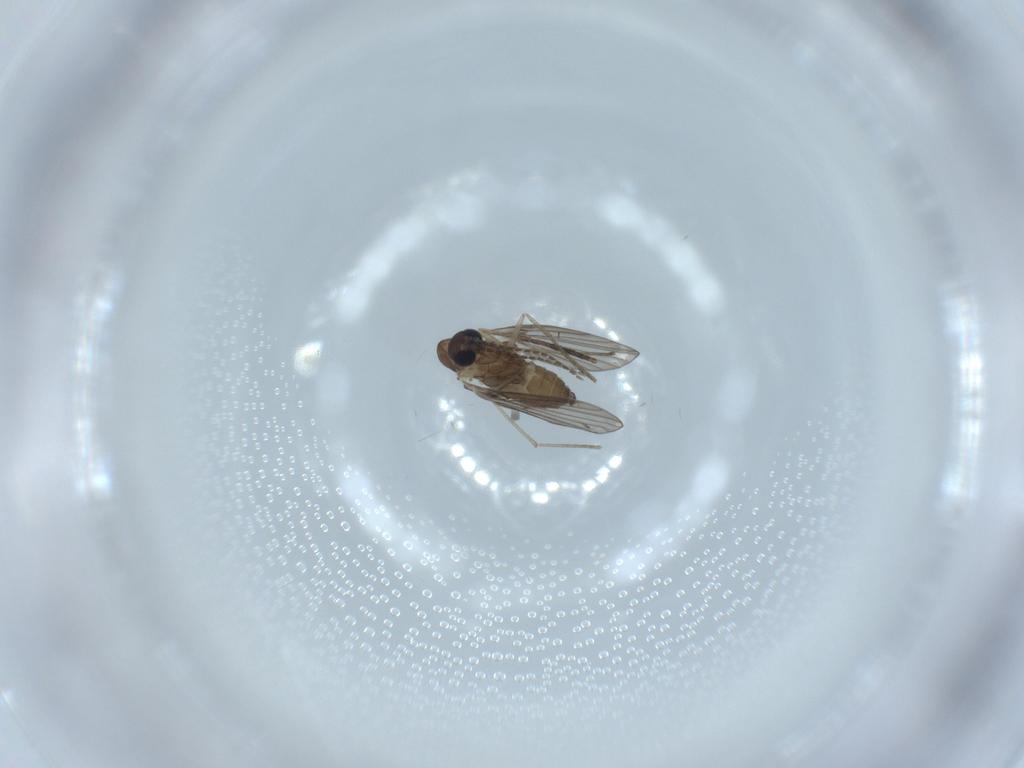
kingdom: Animalia
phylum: Arthropoda
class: Insecta
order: Diptera
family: Psychodidae
